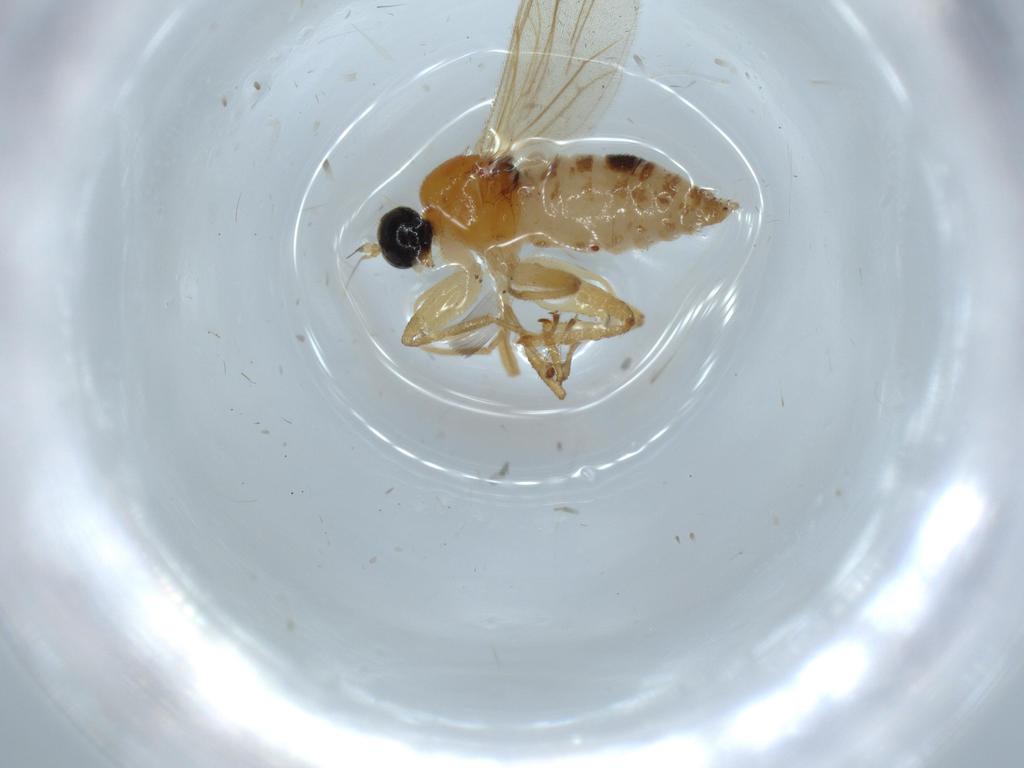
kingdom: Animalia
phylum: Arthropoda
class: Insecta
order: Diptera
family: Hybotidae
